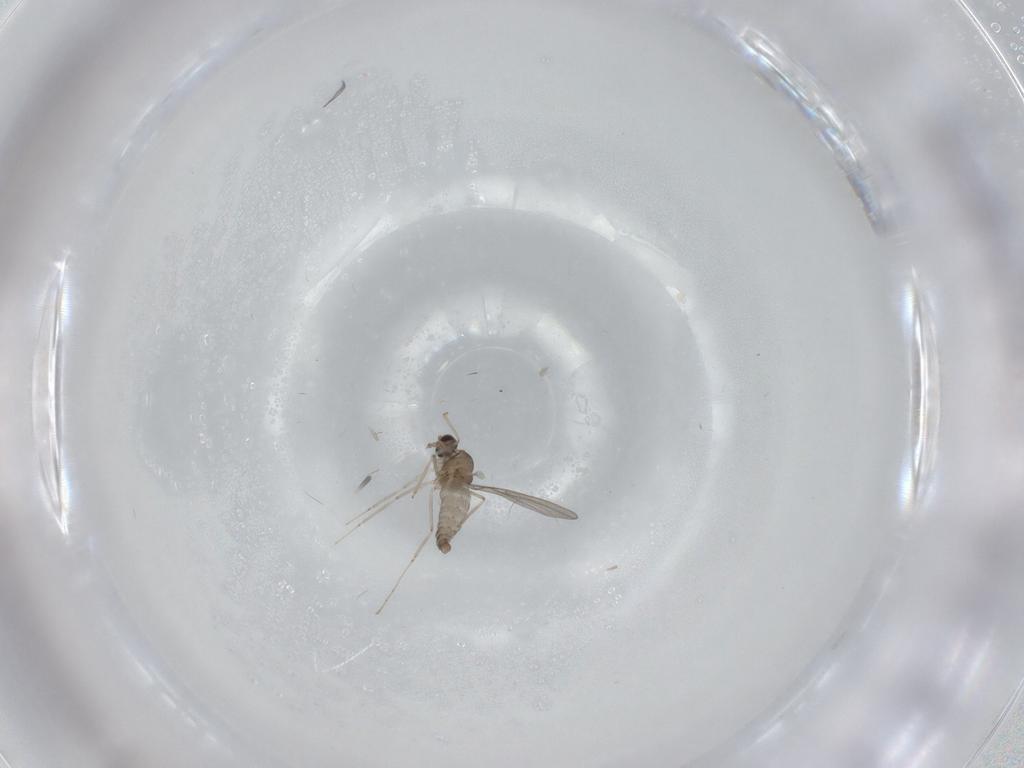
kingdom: Animalia
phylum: Arthropoda
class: Insecta
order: Diptera
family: Cecidomyiidae
